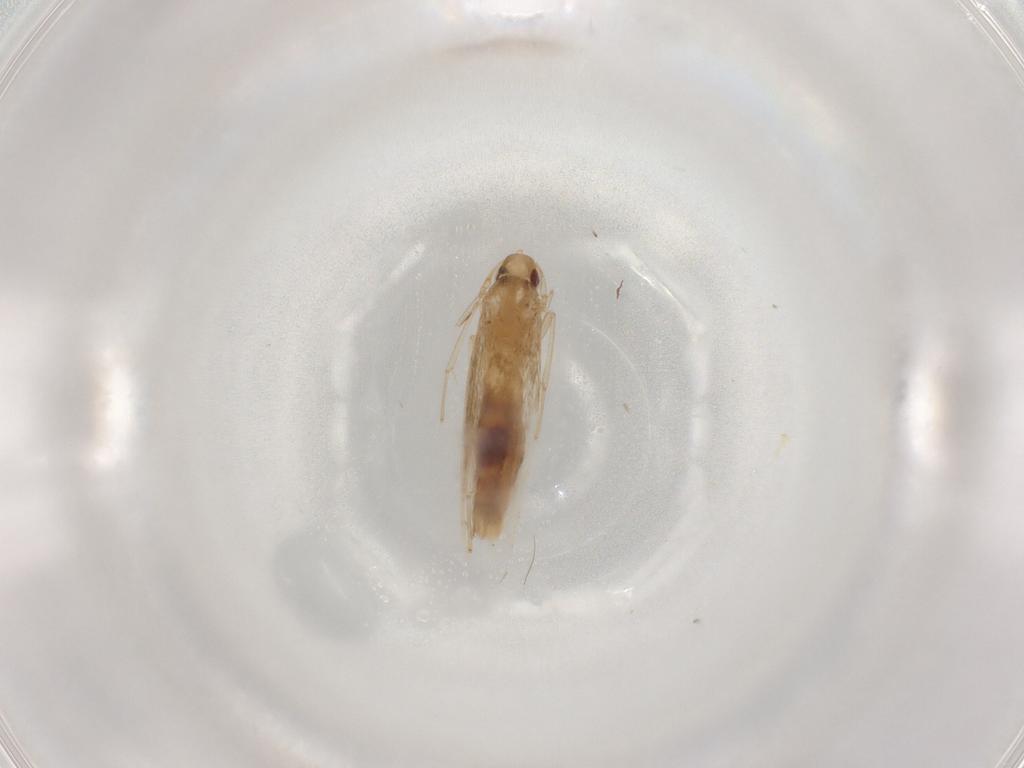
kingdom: Animalia
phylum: Arthropoda
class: Insecta
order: Lepidoptera
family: Cosmopterigidae
